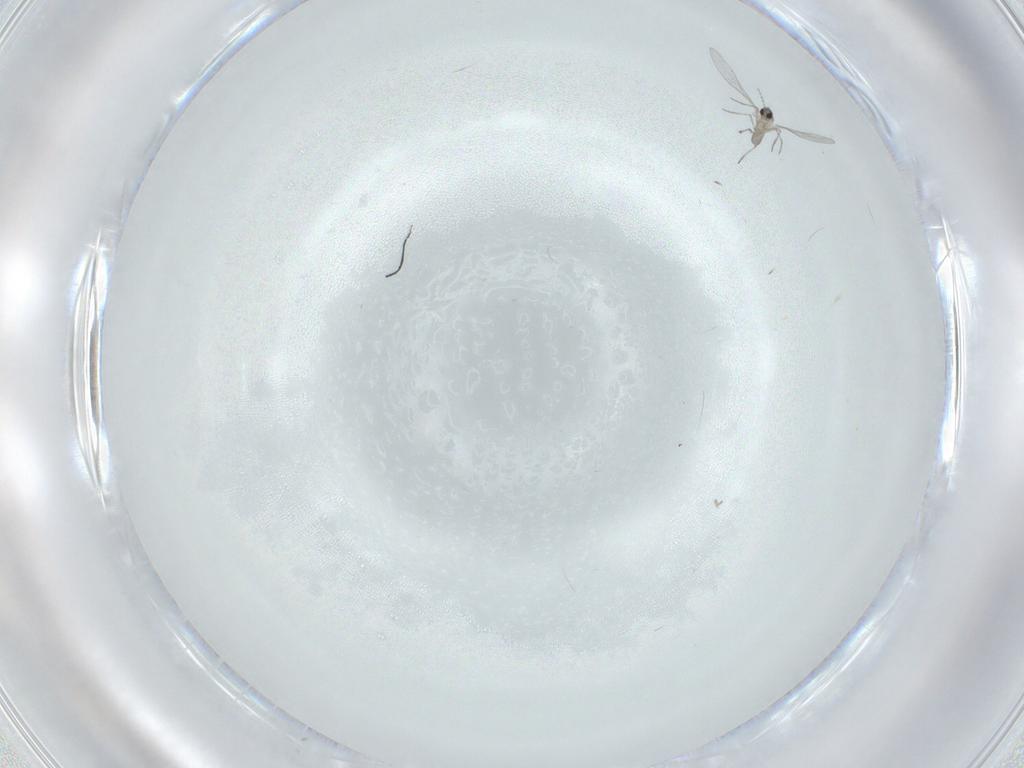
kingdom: Animalia
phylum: Arthropoda
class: Insecta
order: Diptera
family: Cecidomyiidae
